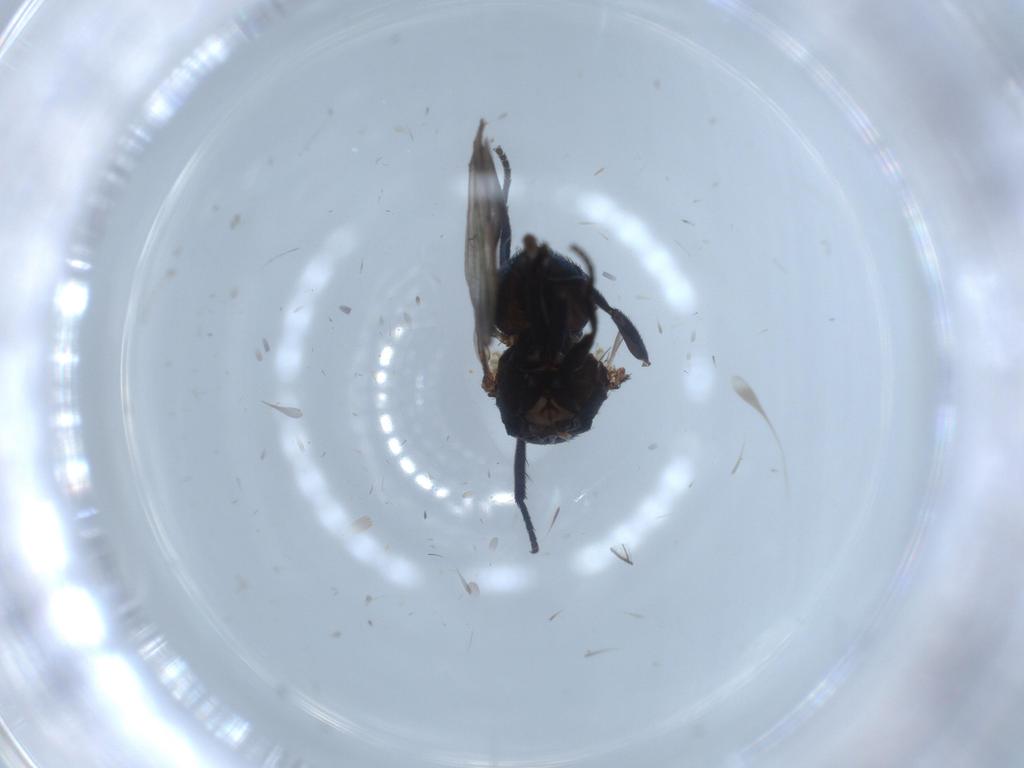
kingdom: Animalia
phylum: Arthropoda
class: Insecta
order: Diptera
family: Agromyzidae
